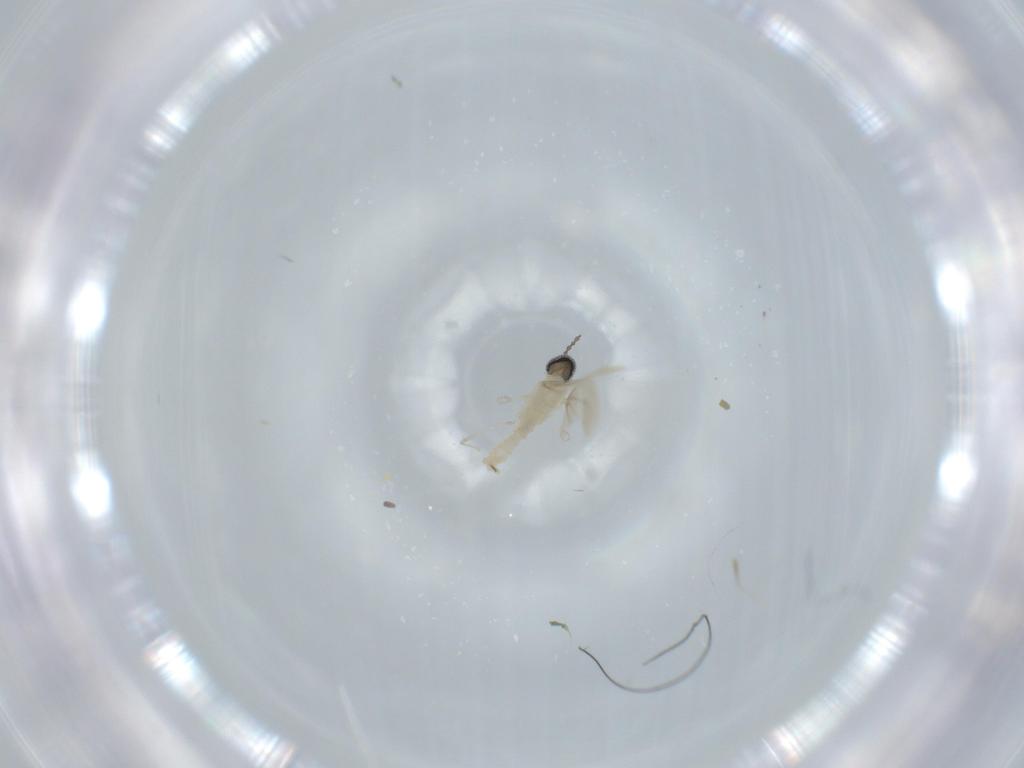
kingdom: Animalia
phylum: Arthropoda
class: Insecta
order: Diptera
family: Cecidomyiidae
